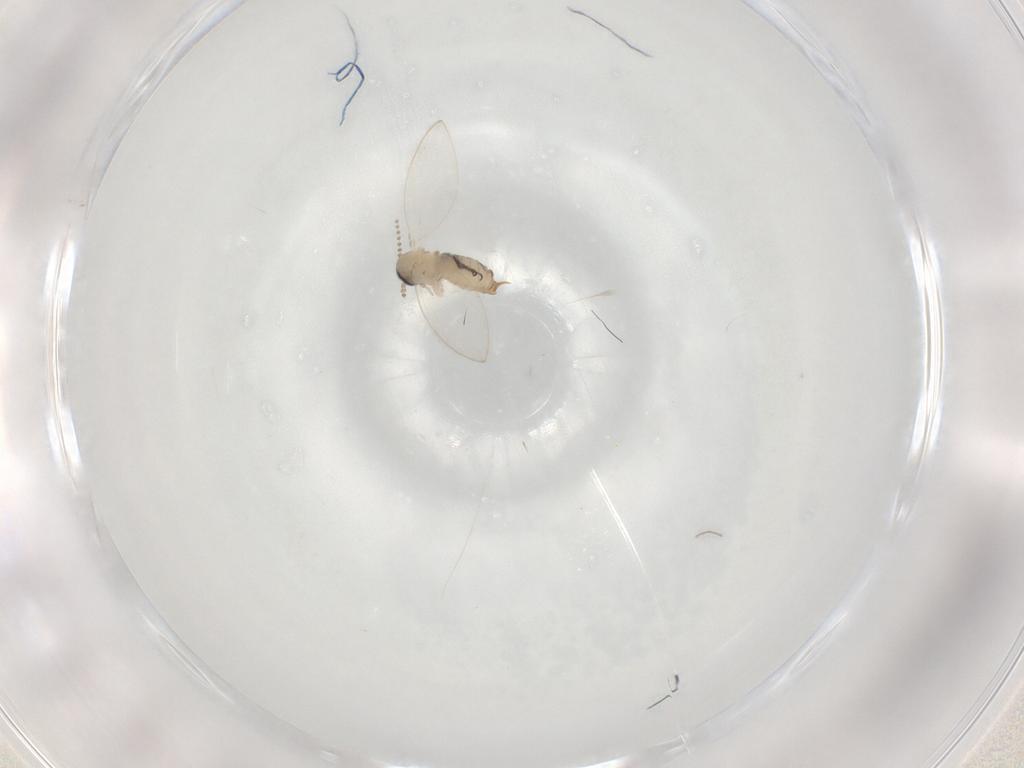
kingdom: Animalia
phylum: Arthropoda
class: Insecta
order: Diptera
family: Psychodidae
